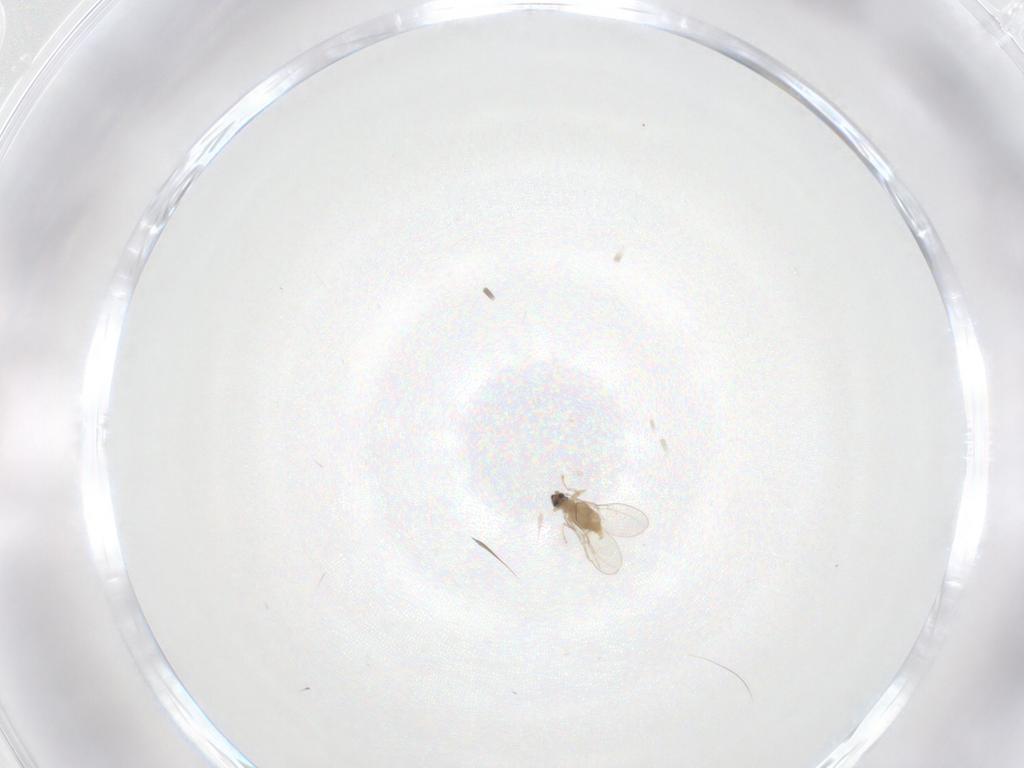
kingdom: Animalia
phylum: Arthropoda
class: Insecta
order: Diptera
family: Cecidomyiidae
